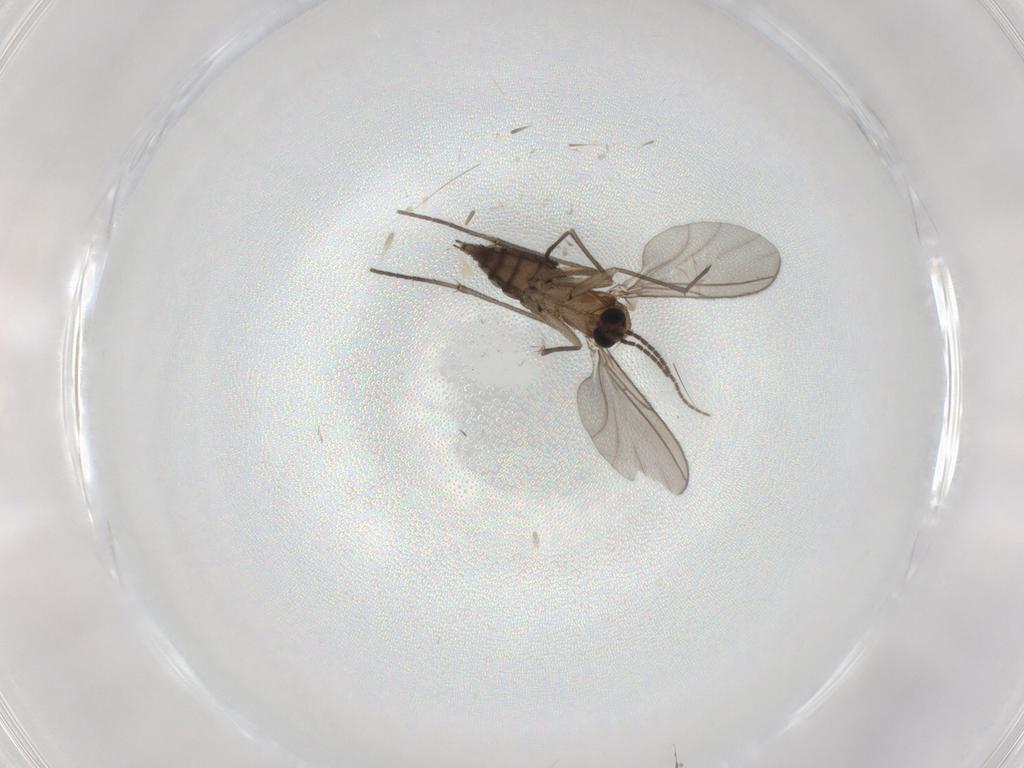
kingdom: Animalia
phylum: Arthropoda
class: Insecta
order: Diptera
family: Sciaridae
